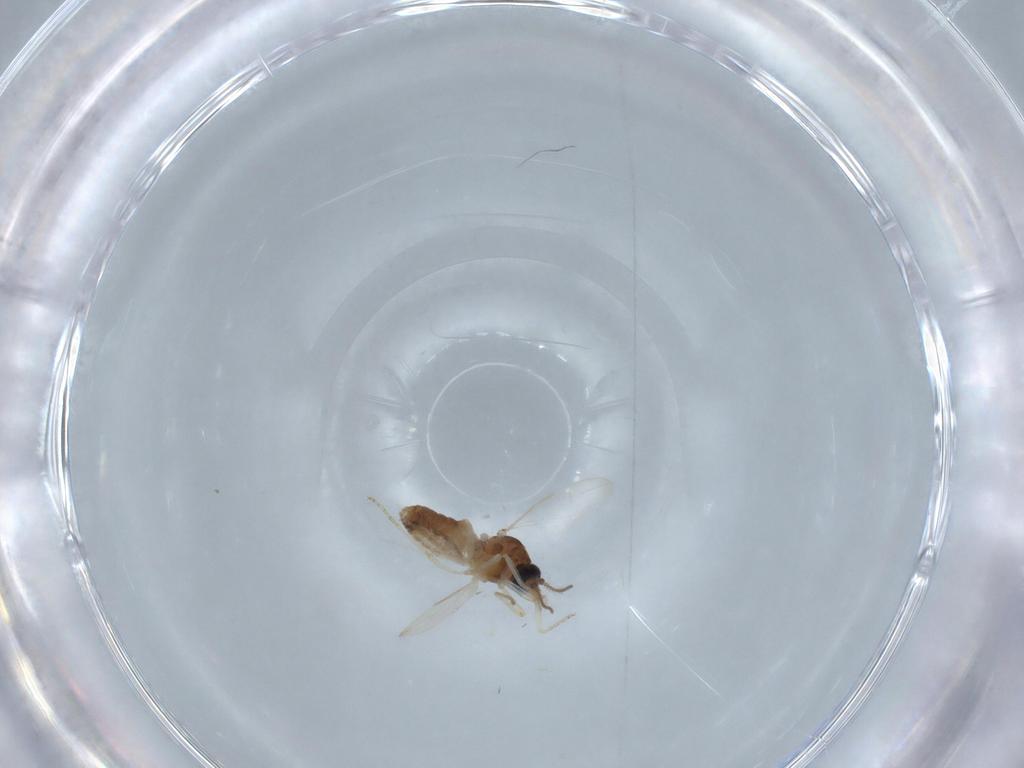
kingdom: Animalia
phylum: Arthropoda
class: Insecta
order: Diptera
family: Ceratopogonidae
